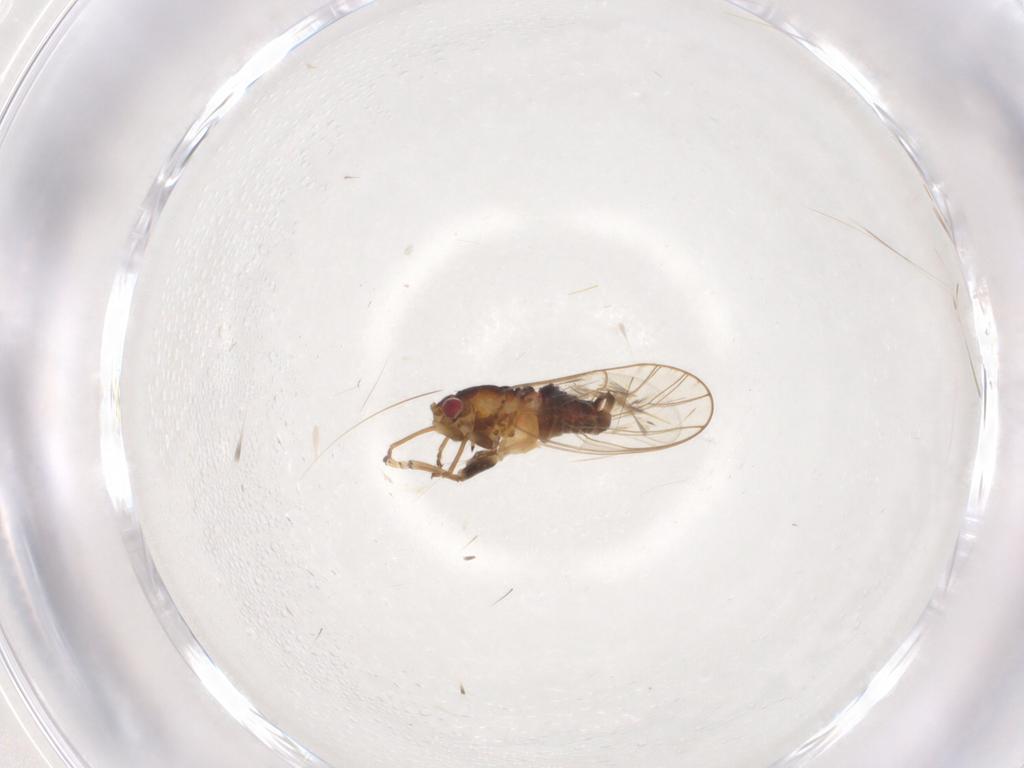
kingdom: Animalia
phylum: Arthropoda
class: Insecta
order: Hemiptera
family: Psyllidae
